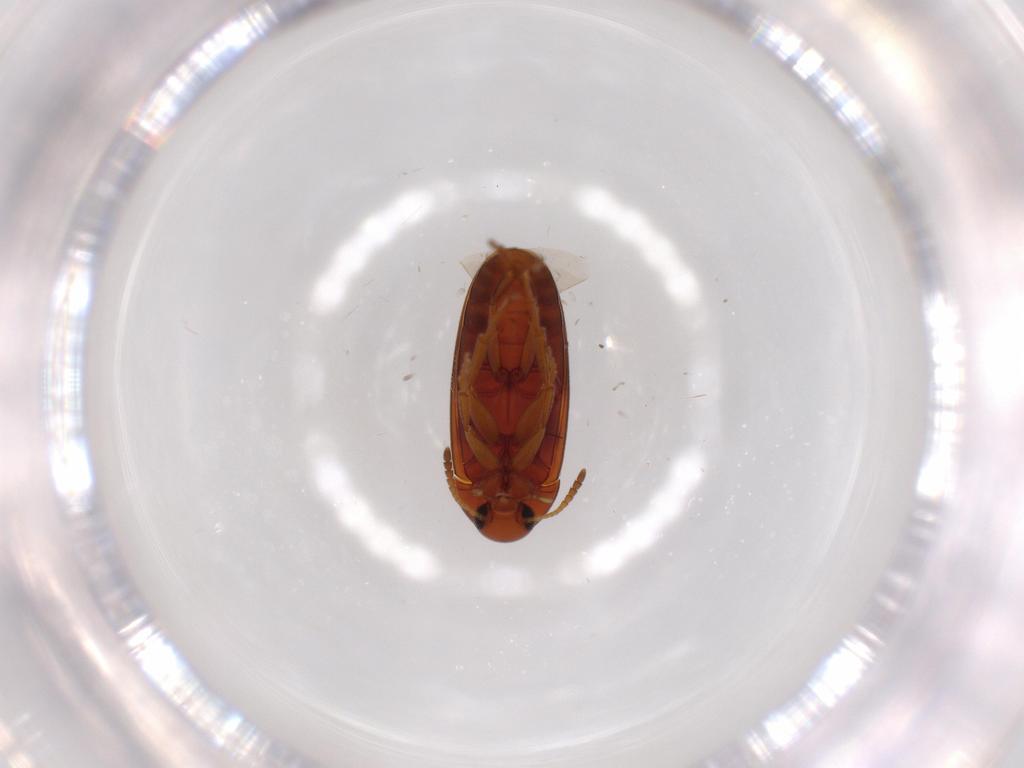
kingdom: Animalia
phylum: Arthropoda
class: Insecta
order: Coleoptera
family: Scraptiidae
